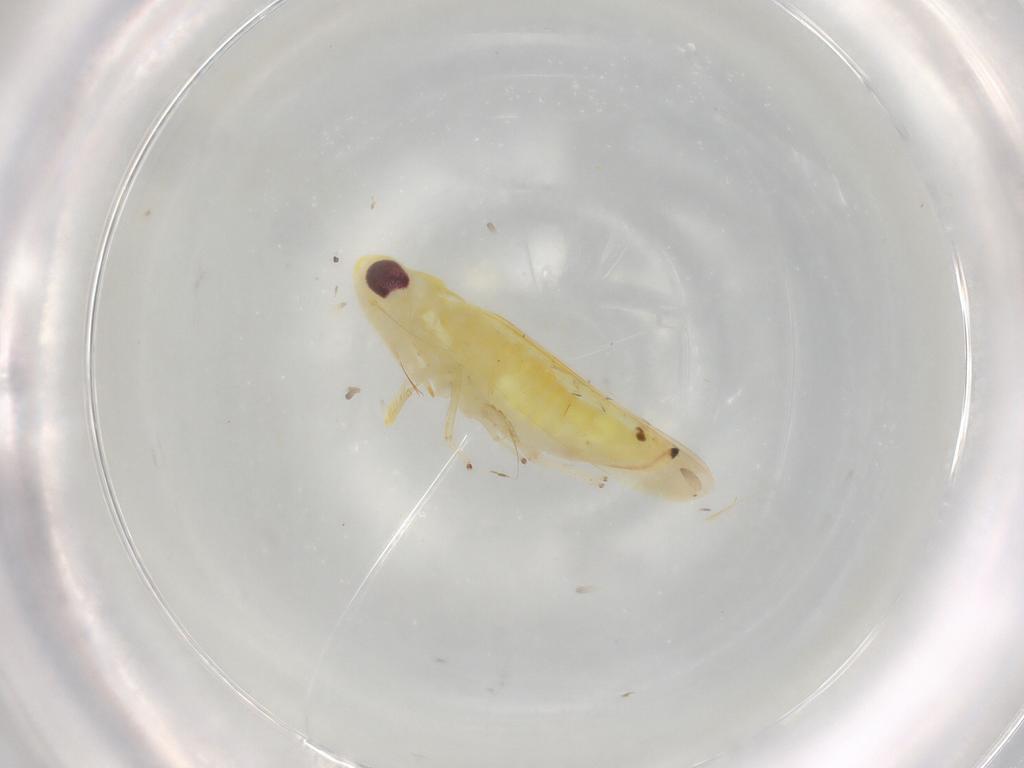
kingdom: Animalia
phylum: Arthropoda
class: Insecta
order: Hemiptera
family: Cicadellidae
